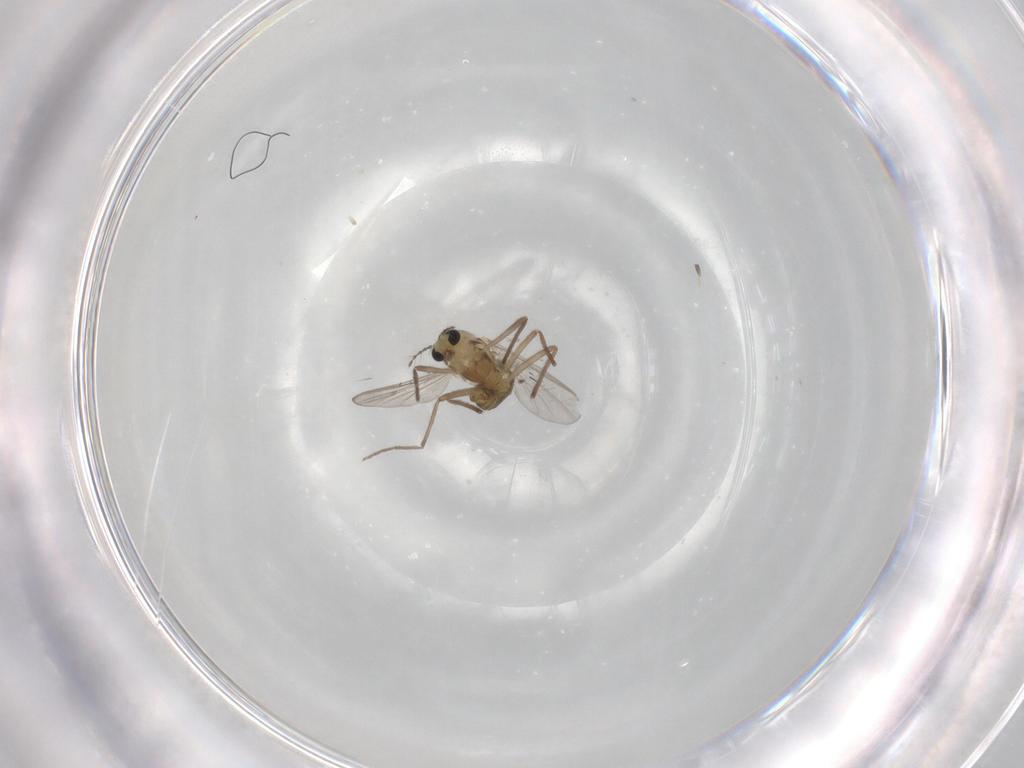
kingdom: Animalia
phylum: Arthropoda
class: Insecta
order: Diptera
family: Chironomidae
